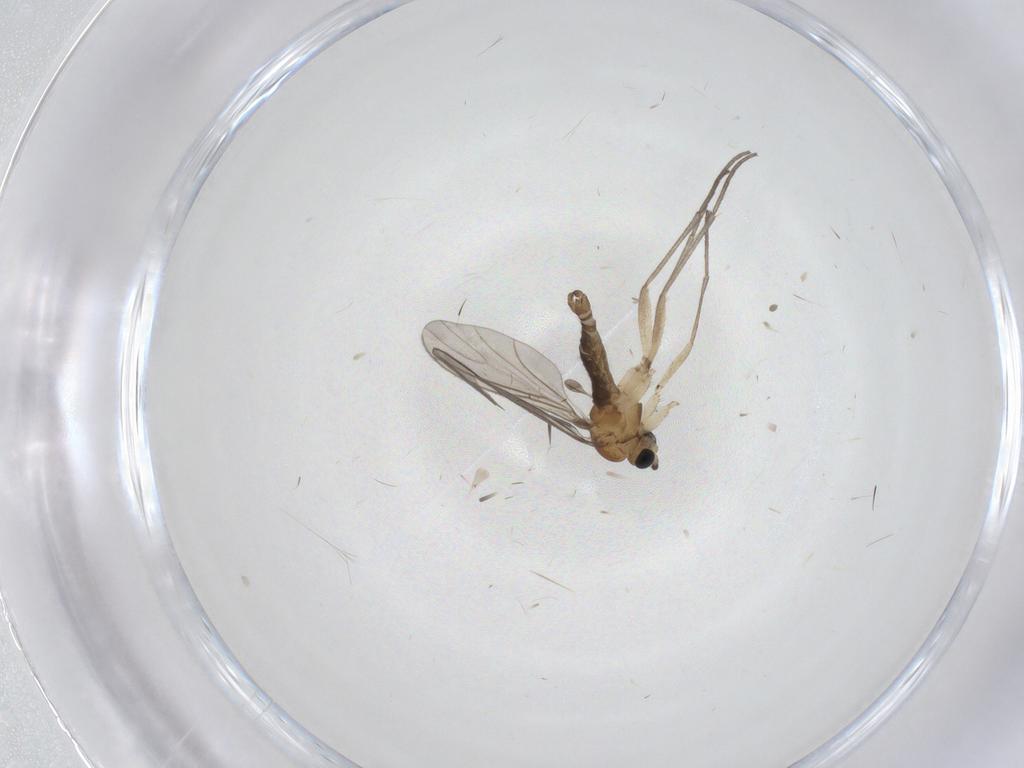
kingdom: Animalia
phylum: Arthropoda
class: Insecta
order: Diptera
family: Sciaridae
